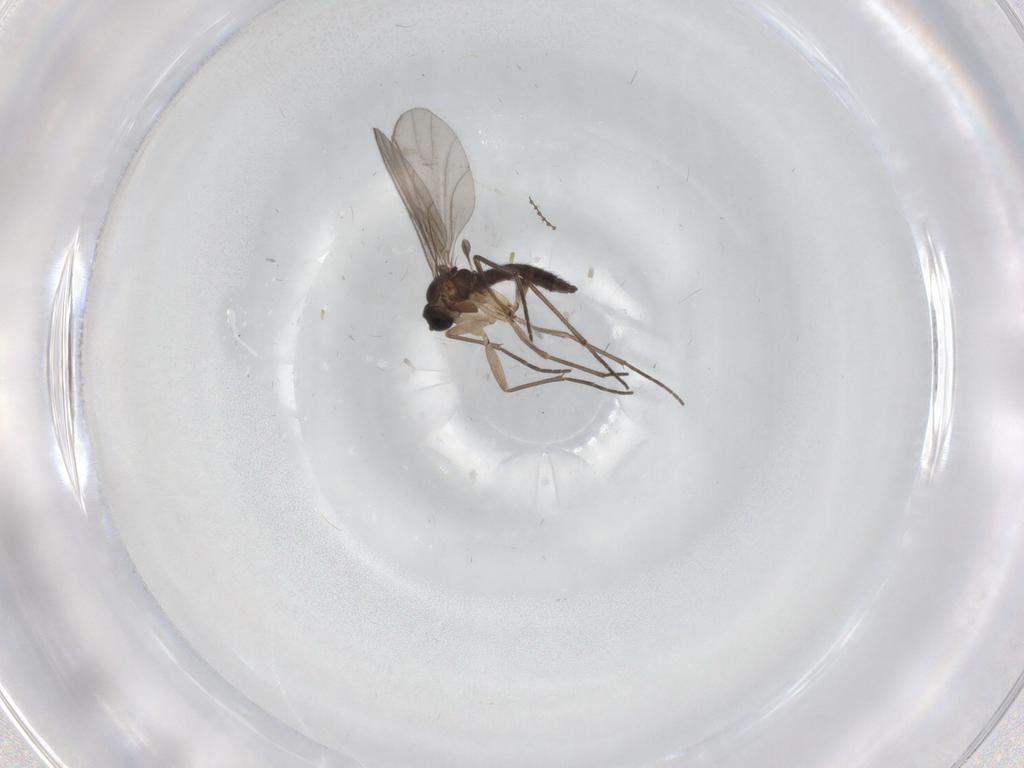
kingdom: Animalia
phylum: Arthropoda
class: Insecta
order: Diptera
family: Sciaridae
